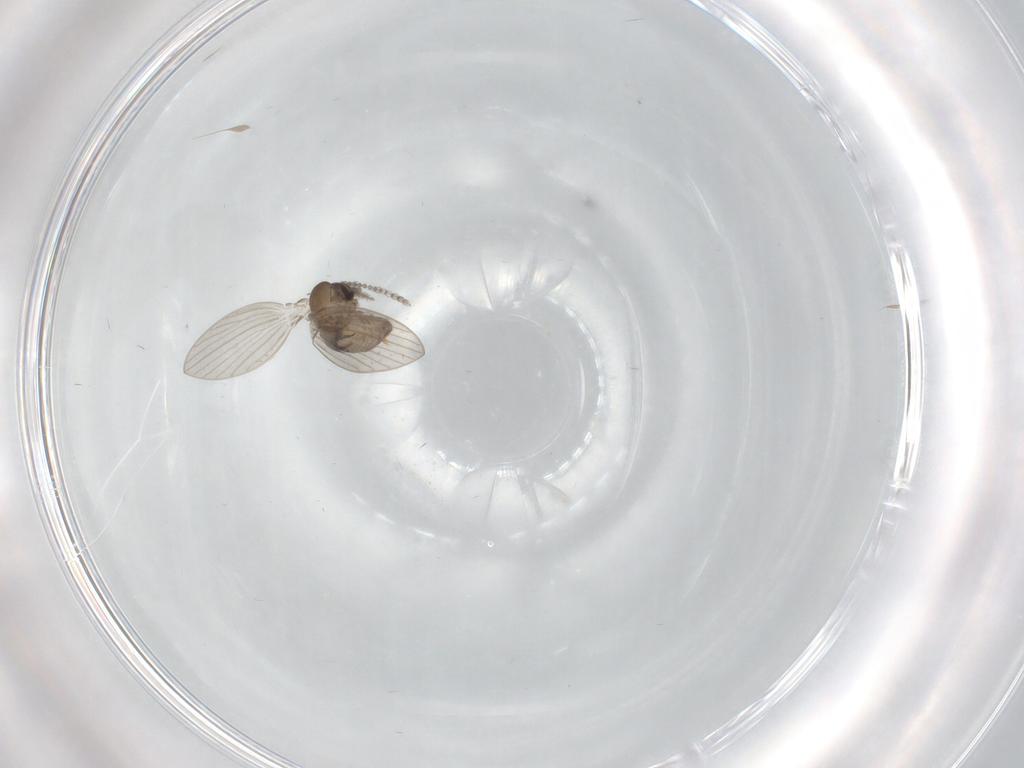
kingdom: Animalia
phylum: Arthropoda
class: Insecta
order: Diptera
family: Psychodidae
